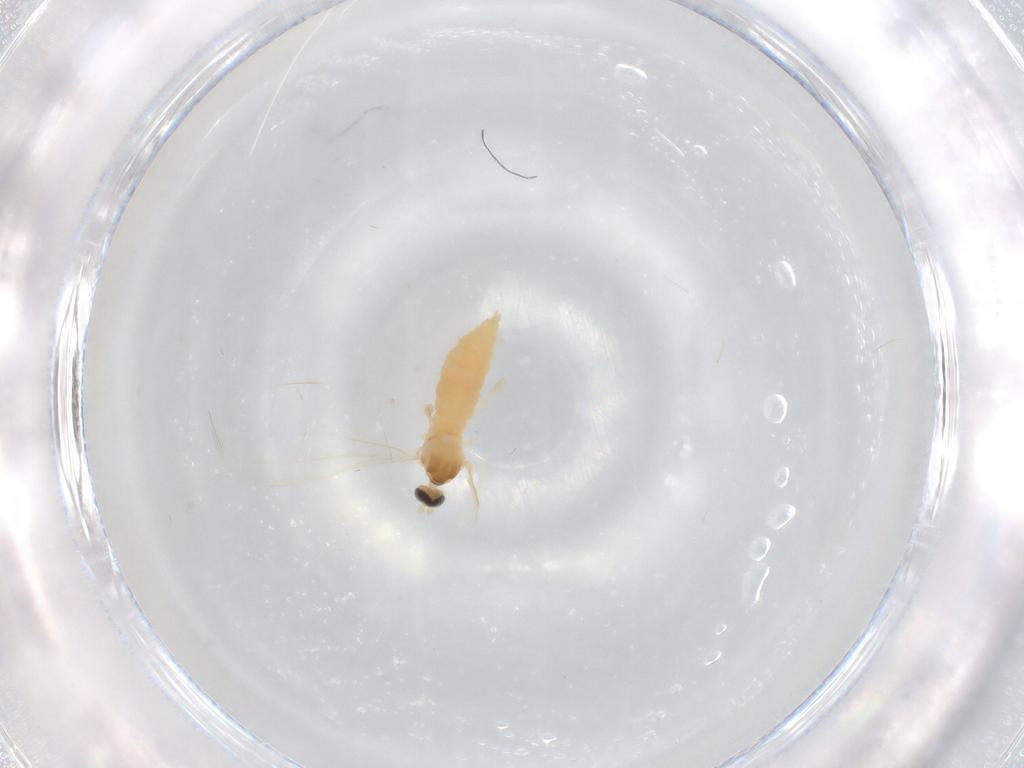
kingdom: Animalia
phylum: Arthropoda
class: Insecta
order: Diptera
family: Cecidomyiidae
